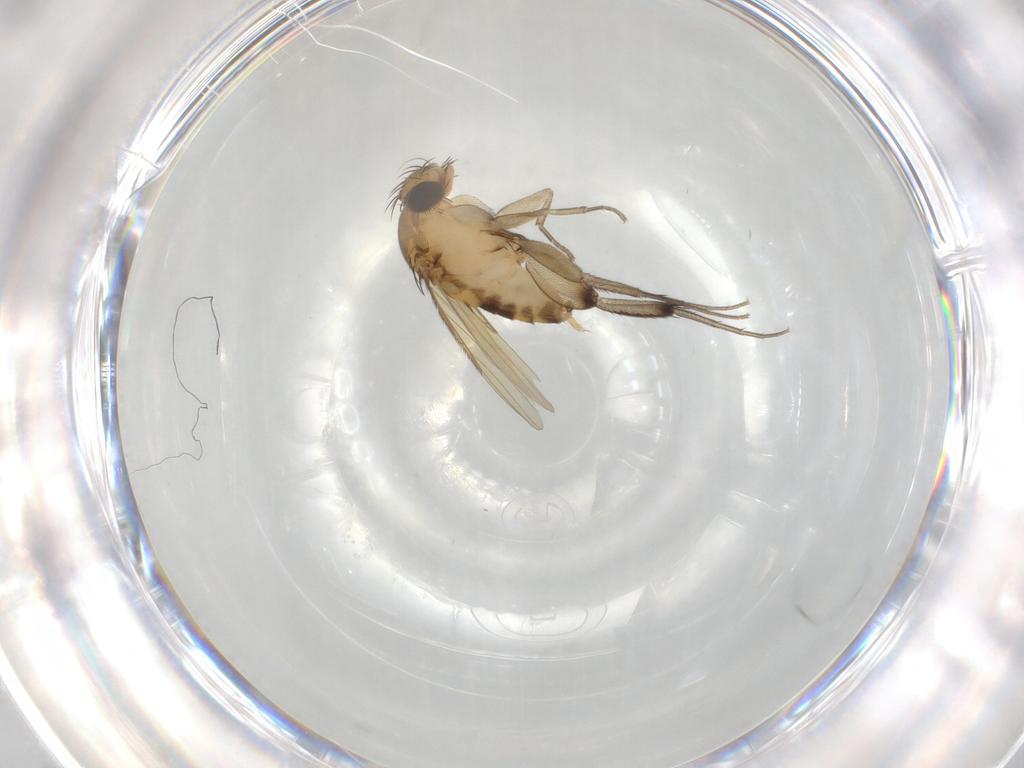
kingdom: Animalia
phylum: Arthropoda
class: Insecta
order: Diptera
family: Phoridae
